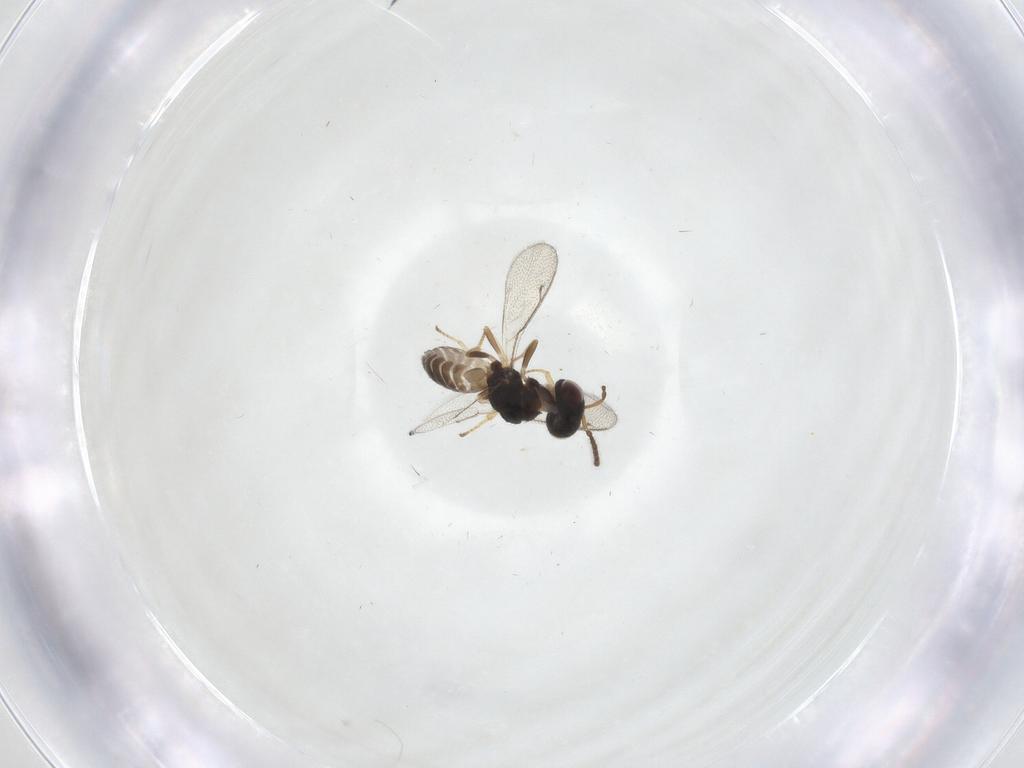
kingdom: Animalia
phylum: Arthropoda
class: Insecta
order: Hymenoptera
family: Pteromalidae
